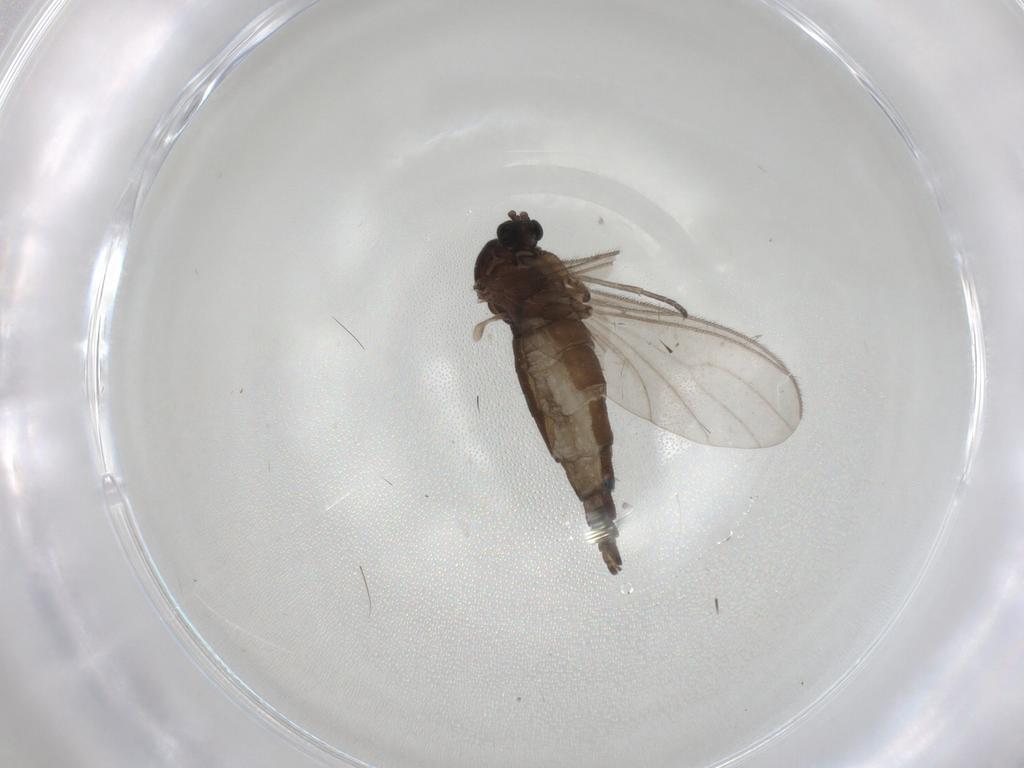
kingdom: Animalia
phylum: Arthropoda
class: Insecta
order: Diptera
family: Sciaridae
